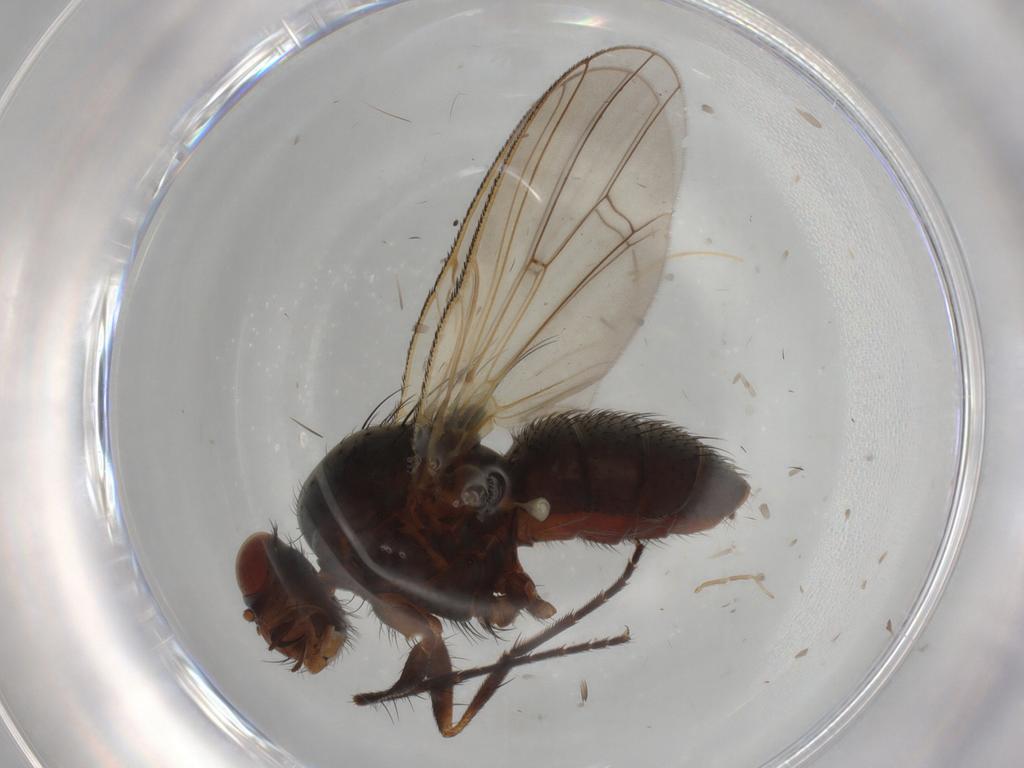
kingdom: Animalia
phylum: Arthropoda
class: Insecta
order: Diptera
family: Anthomyiidae
